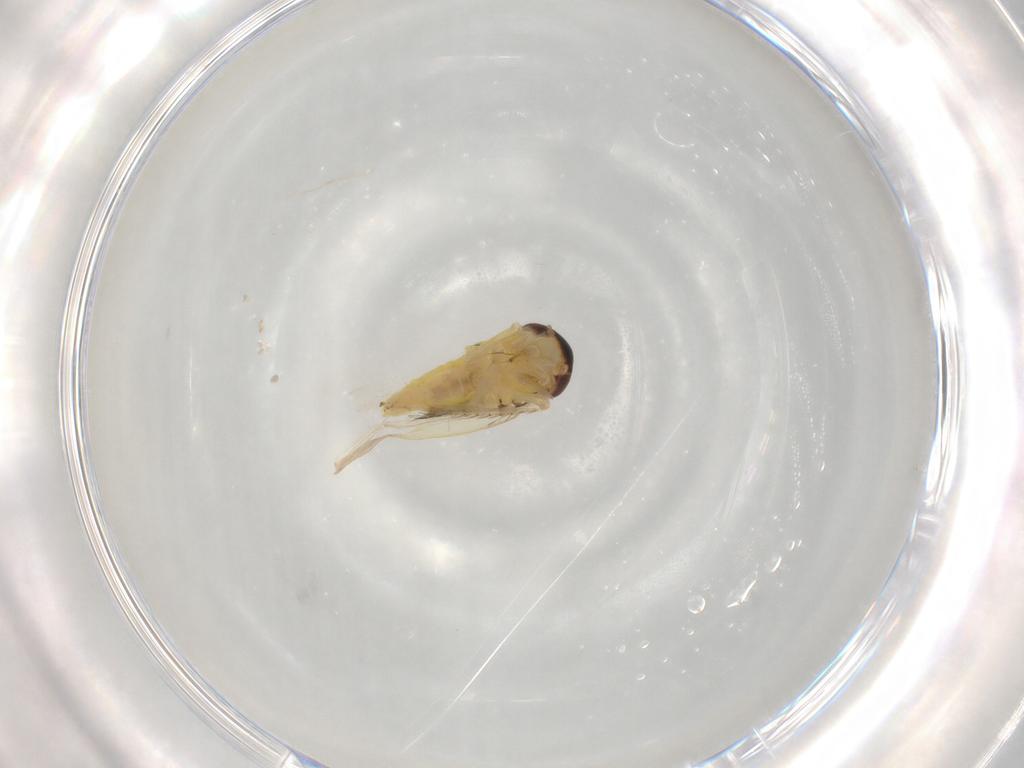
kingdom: Animalia
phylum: Arthropoda
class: Insecta
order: Hemiptera
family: Cicadellidae
